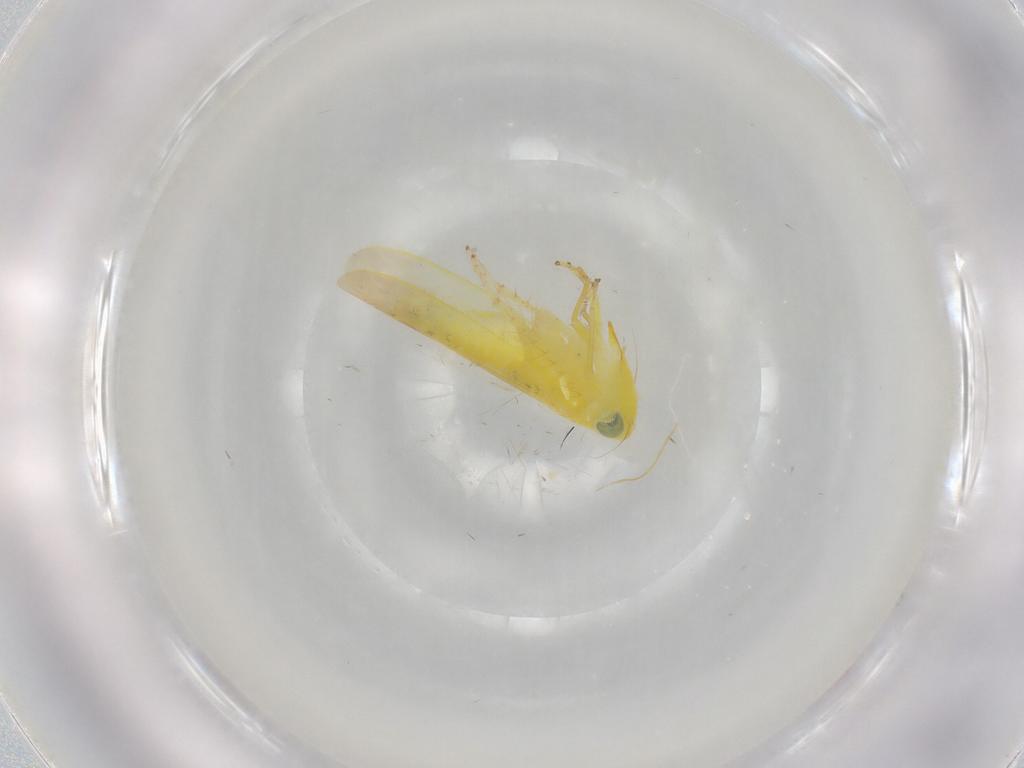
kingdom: Animalia
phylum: Arthropoda
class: Insecta
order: Hemiptera
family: Cicadellidae
